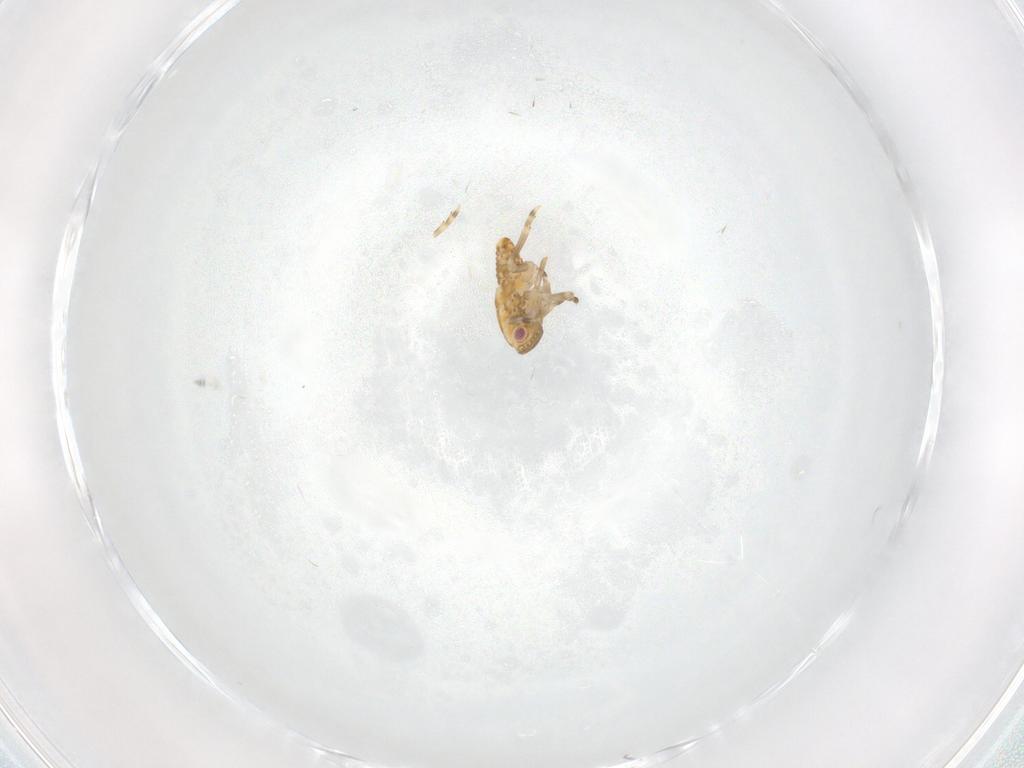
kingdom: Animalia
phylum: Arthropoda
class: Insecta
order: Hemiptera
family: Flatidae
